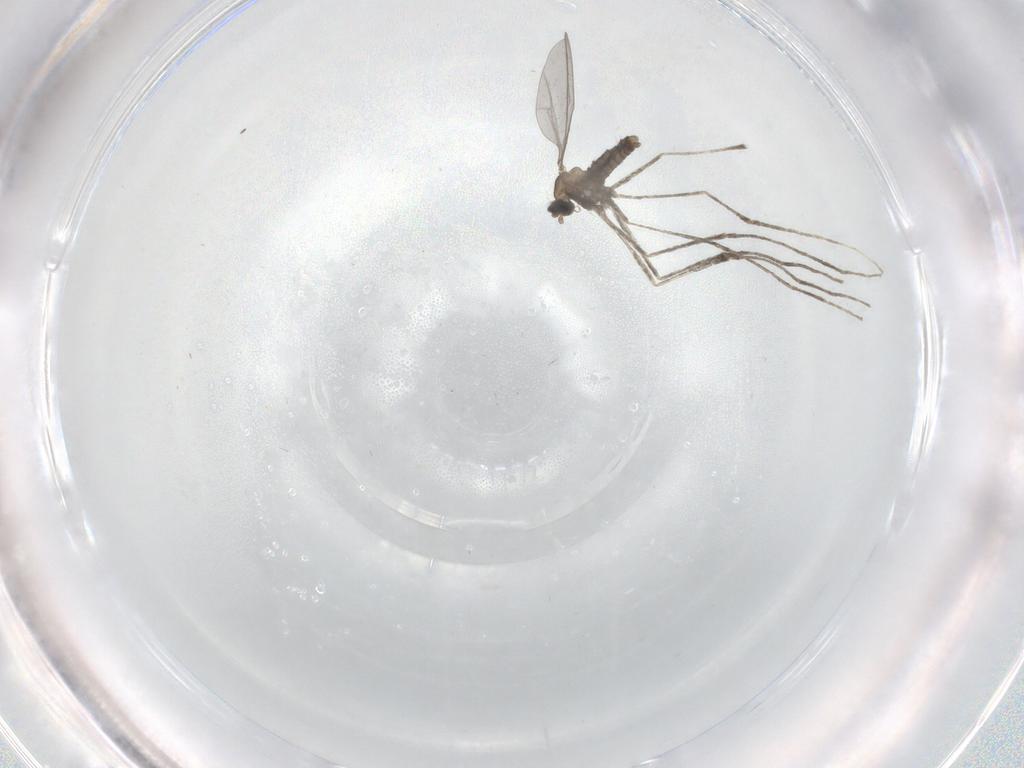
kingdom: Animalia
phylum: Arthropoda
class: Insecta
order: Diptera
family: Cecidomyiidae
